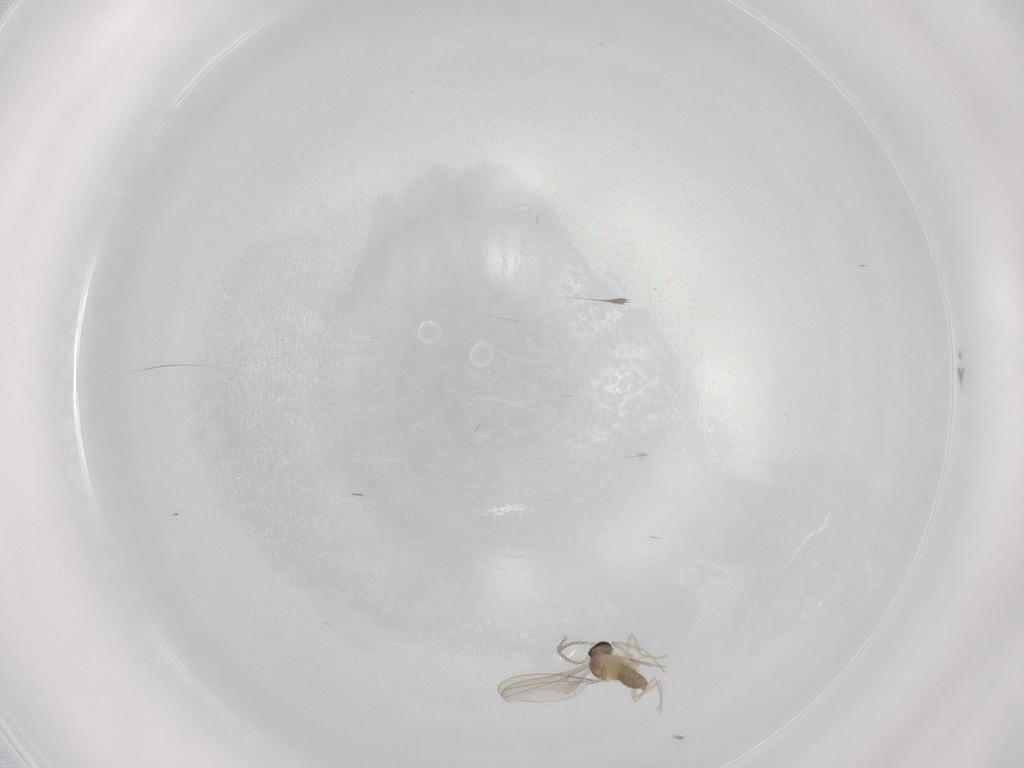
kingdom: Animalia
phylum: Arthropoda
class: Insecta
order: Diptera
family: Cecidomyiidae
